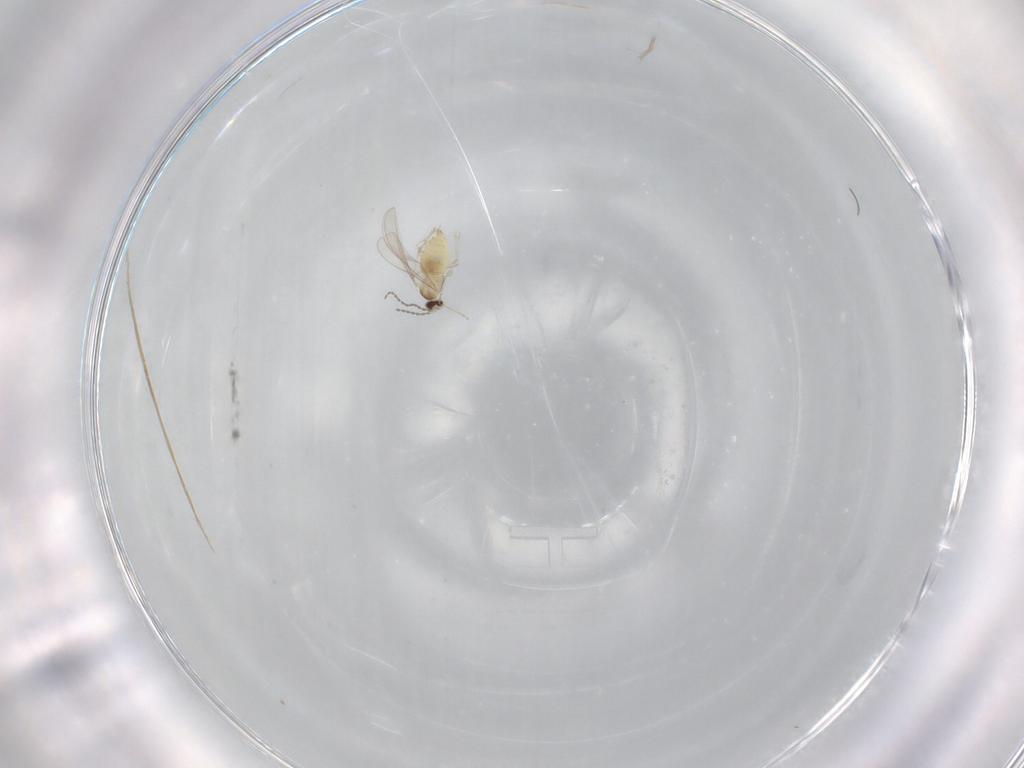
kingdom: Animalia
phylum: Arthropoda
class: Insecta
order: Diptera
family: Cecidomyiidae
